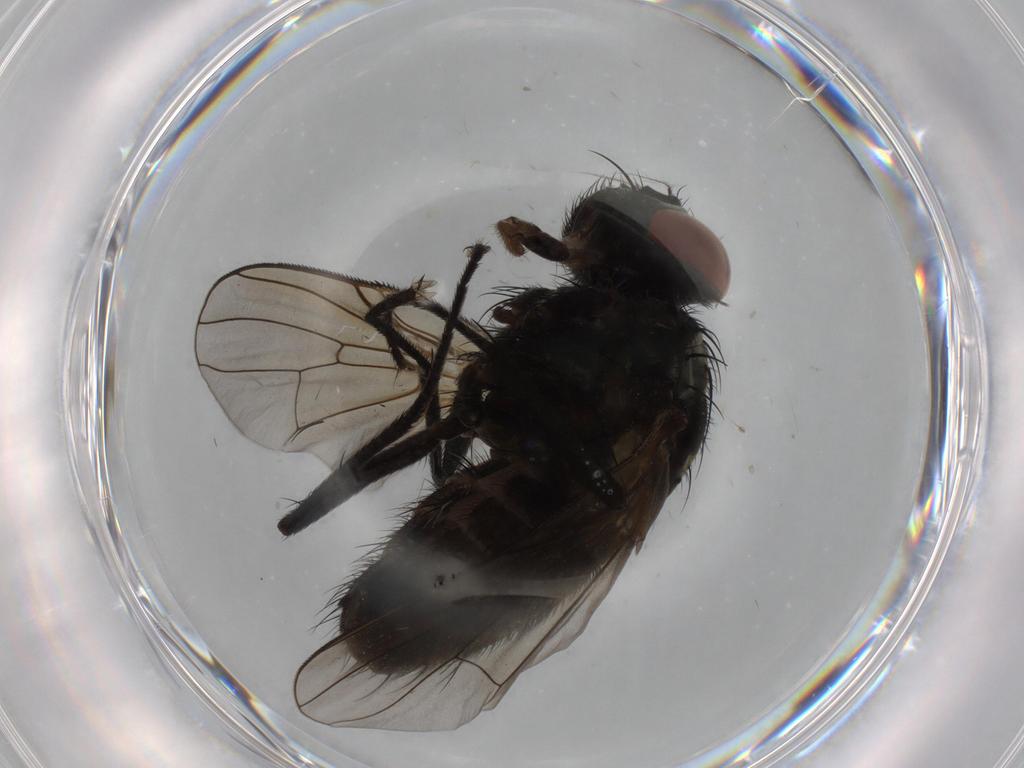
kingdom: Animalia
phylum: Arthropoda
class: Insecta
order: Diptera
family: Muscidae
